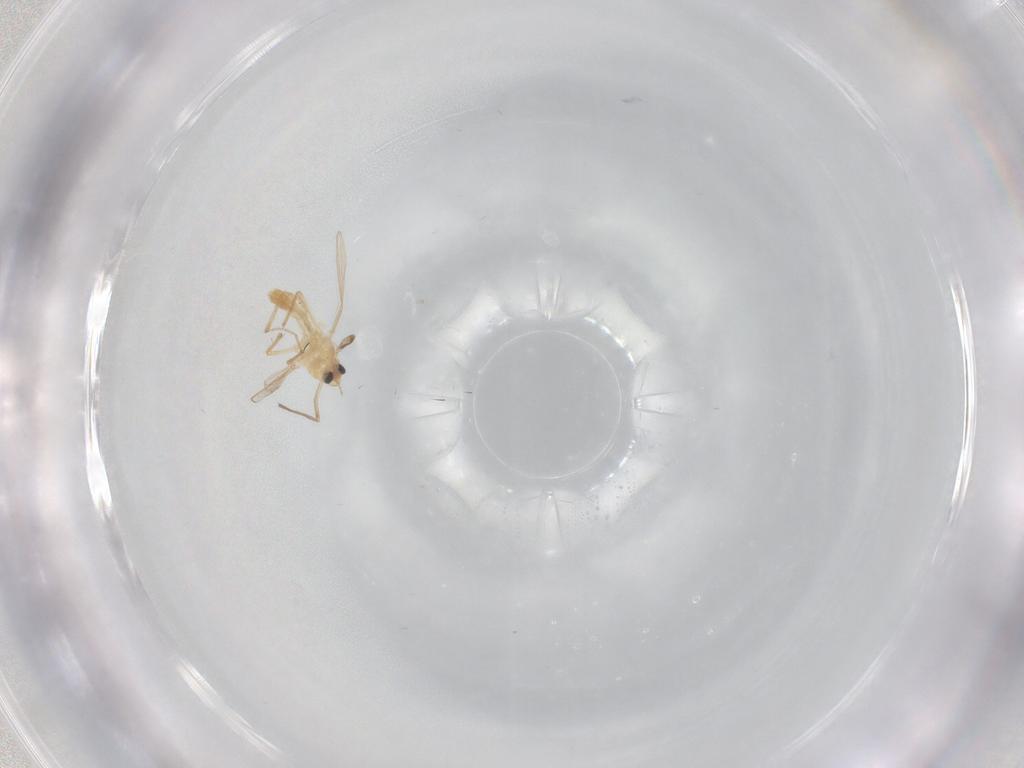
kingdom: Animalia
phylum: Arthropoda
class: Insecta
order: Diptera
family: Chironomidae
